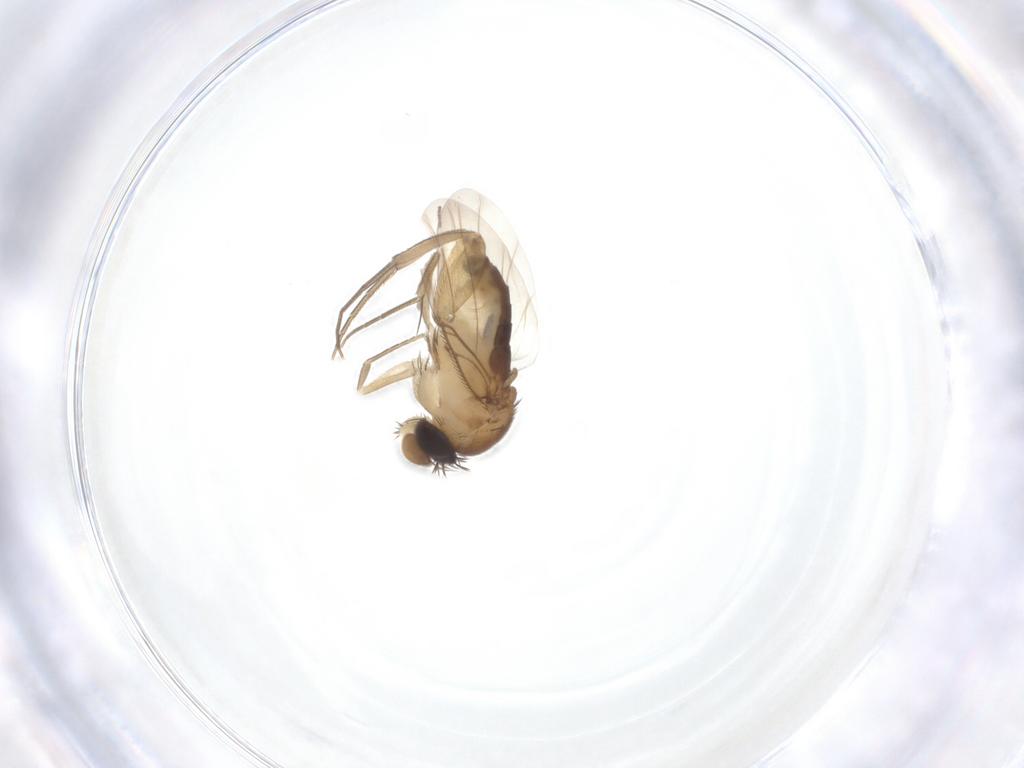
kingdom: Animalia
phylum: Arthropoda
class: Insecta
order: Diptera
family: Phoridae
